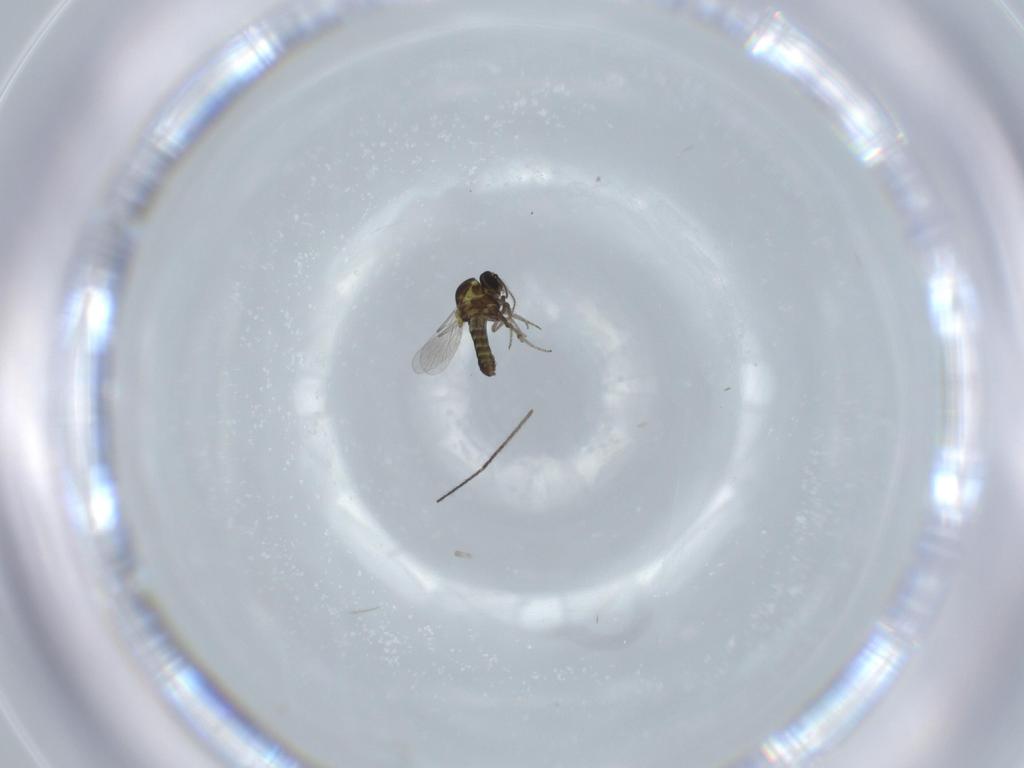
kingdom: Animalia
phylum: Arthropoda
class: Insecta
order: Diptera
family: Ceratopogonidae
